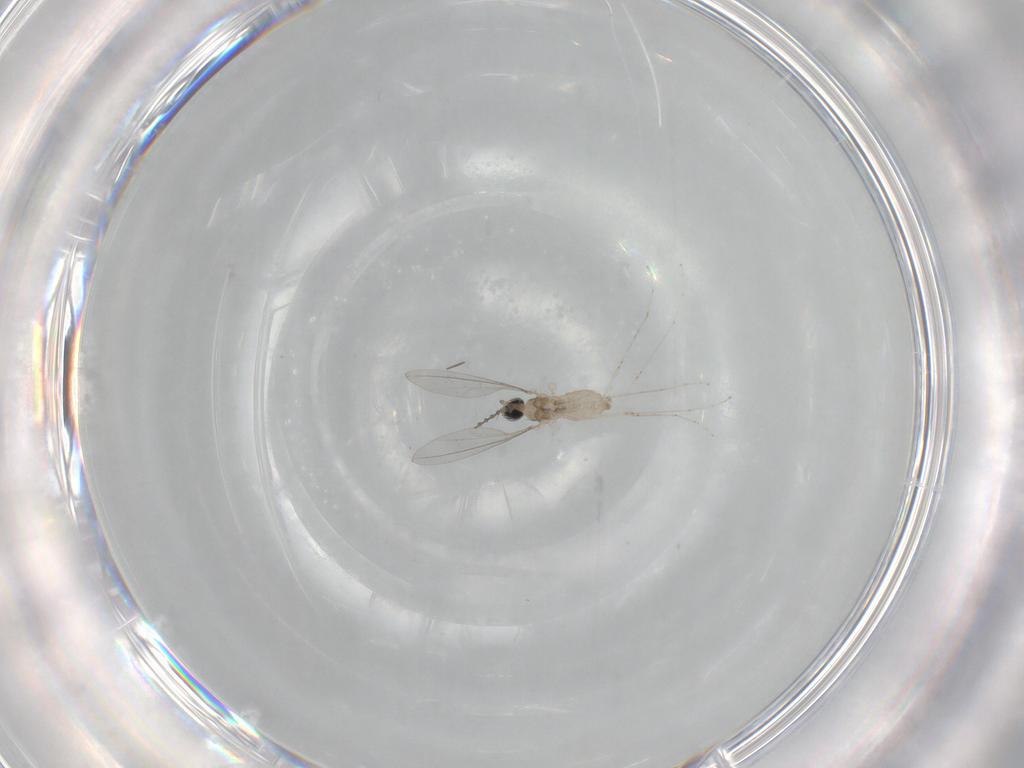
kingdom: Animalia
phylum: Arthropoda
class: Insecta
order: Diptera
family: Cecidomyiidae
